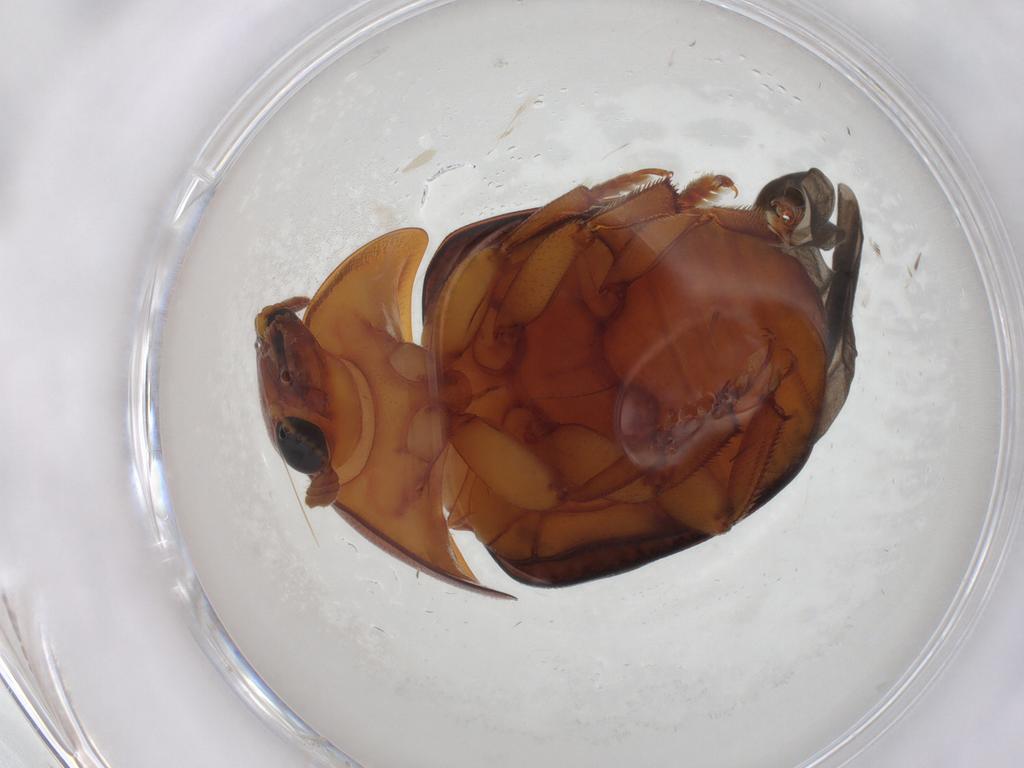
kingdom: Animalia
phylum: Arthropoda
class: Insecta
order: Coleoptera
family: Nitidulidae
